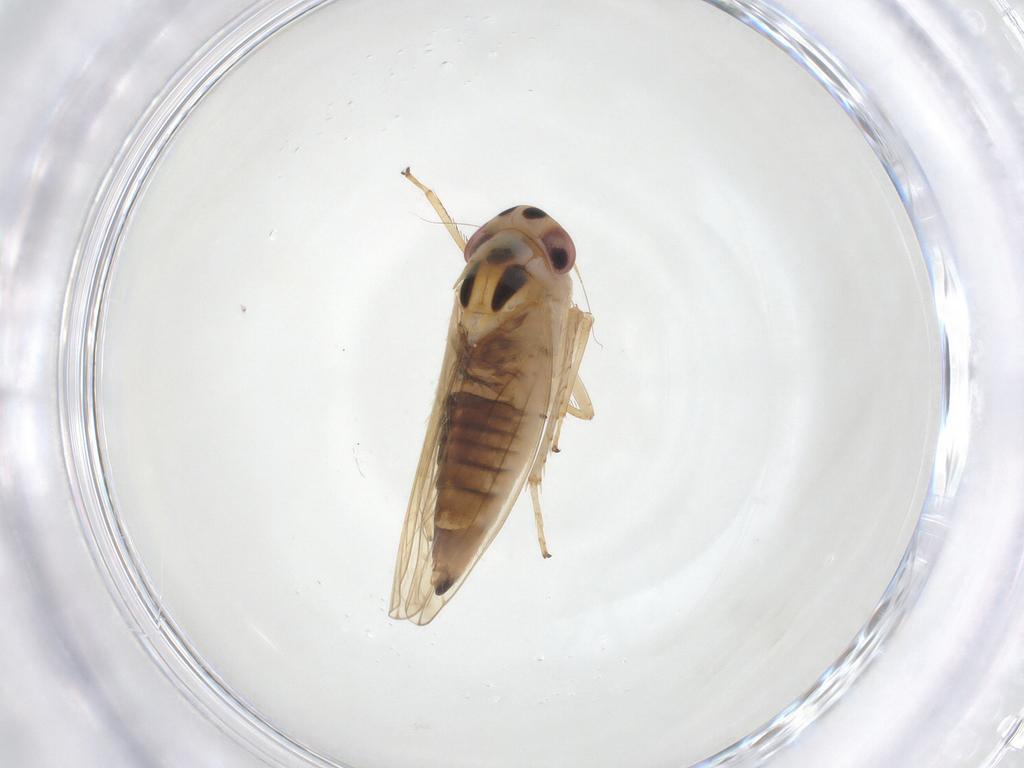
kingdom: Animalia
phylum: Arthropoda
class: Insecta
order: Hemiptera
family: Cicadellidae
